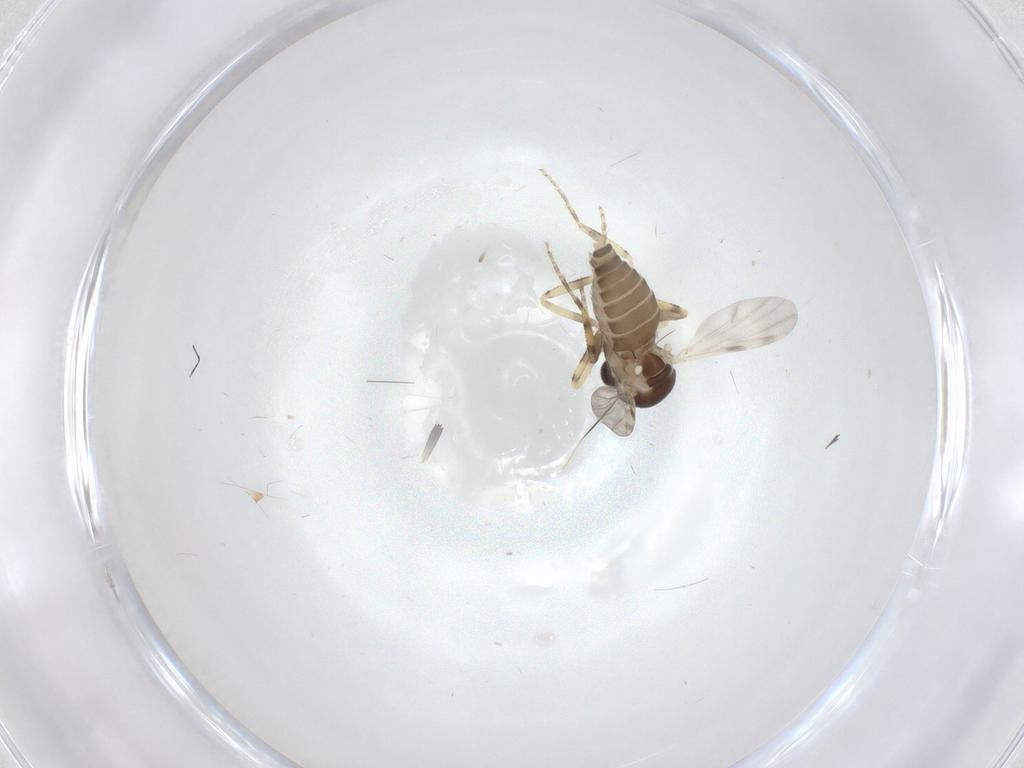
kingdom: Animalia
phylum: Arthropoda
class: Insecta
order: Diptera
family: Ceratopogonidae
